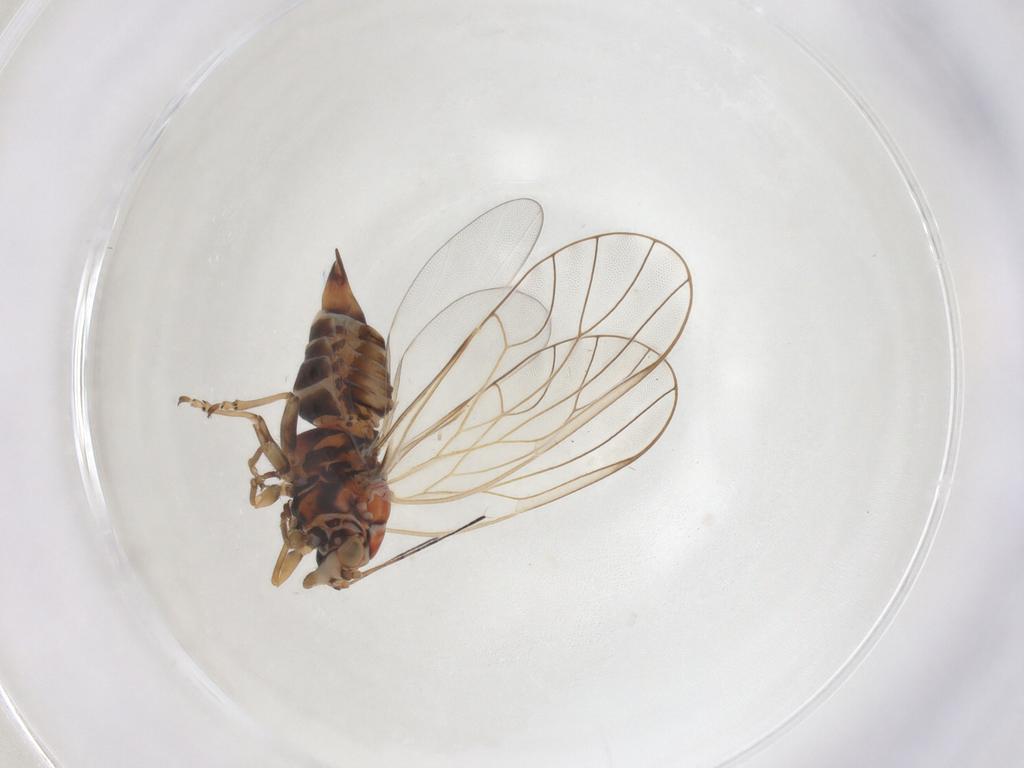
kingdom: Animalia
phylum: Arthropoda
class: Insecta
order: Hemiptera
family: Psyllidae
